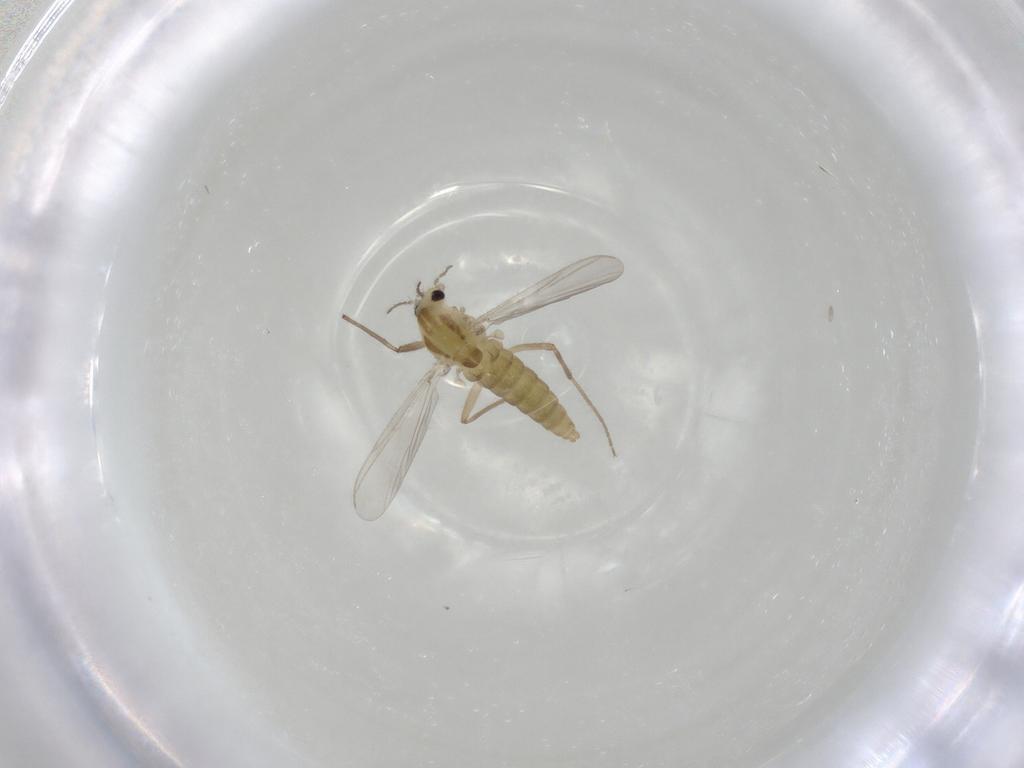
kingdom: Animalia
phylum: Arthropoda
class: Insecta
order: Diptera
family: Chironomidae
